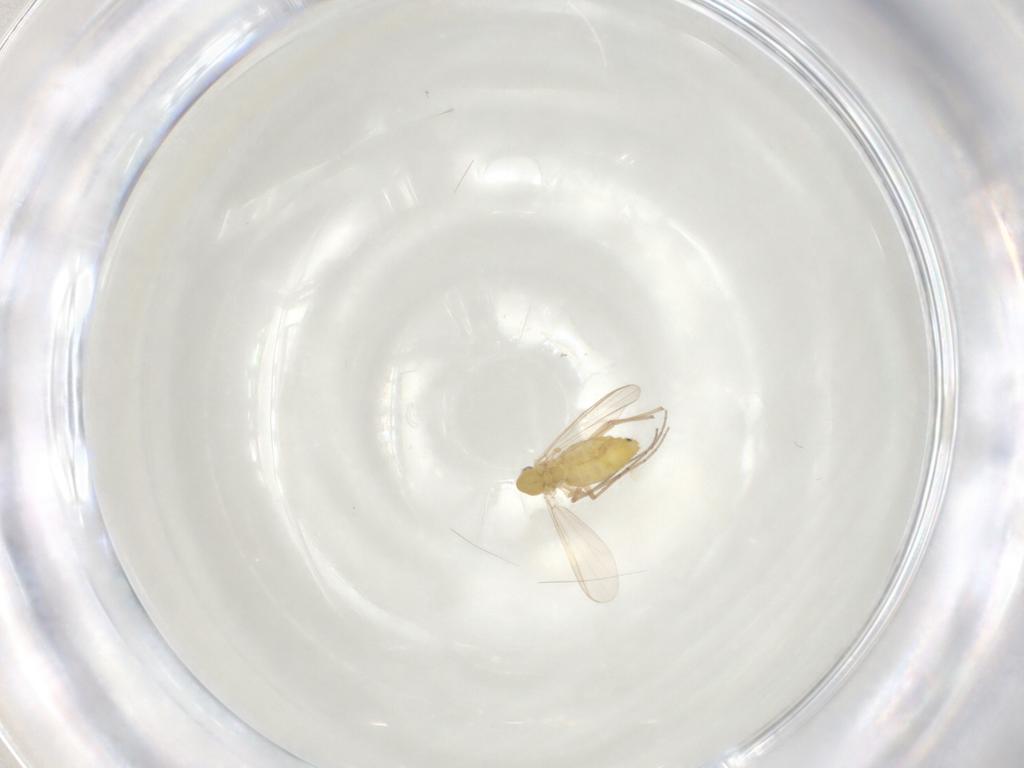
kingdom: Animalia
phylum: Arthropoda
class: Insecta
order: Diptera
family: Chironomidae
